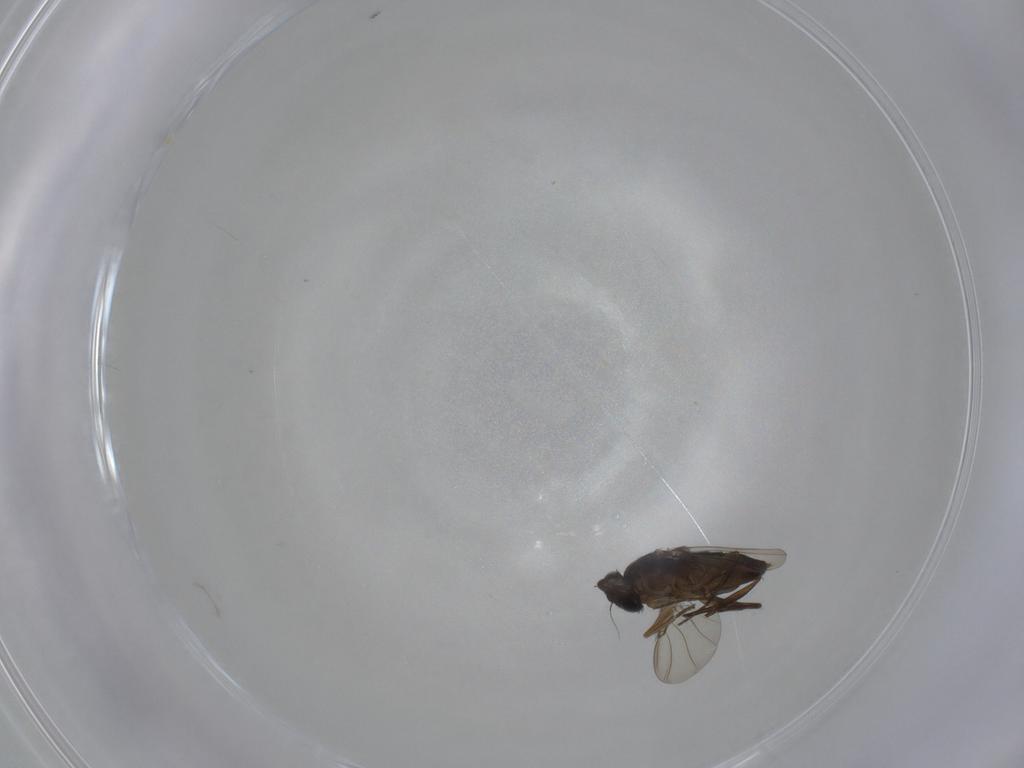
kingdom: Animalia
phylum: Arthropoda
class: Insecta
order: Diptera
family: Phoridae
